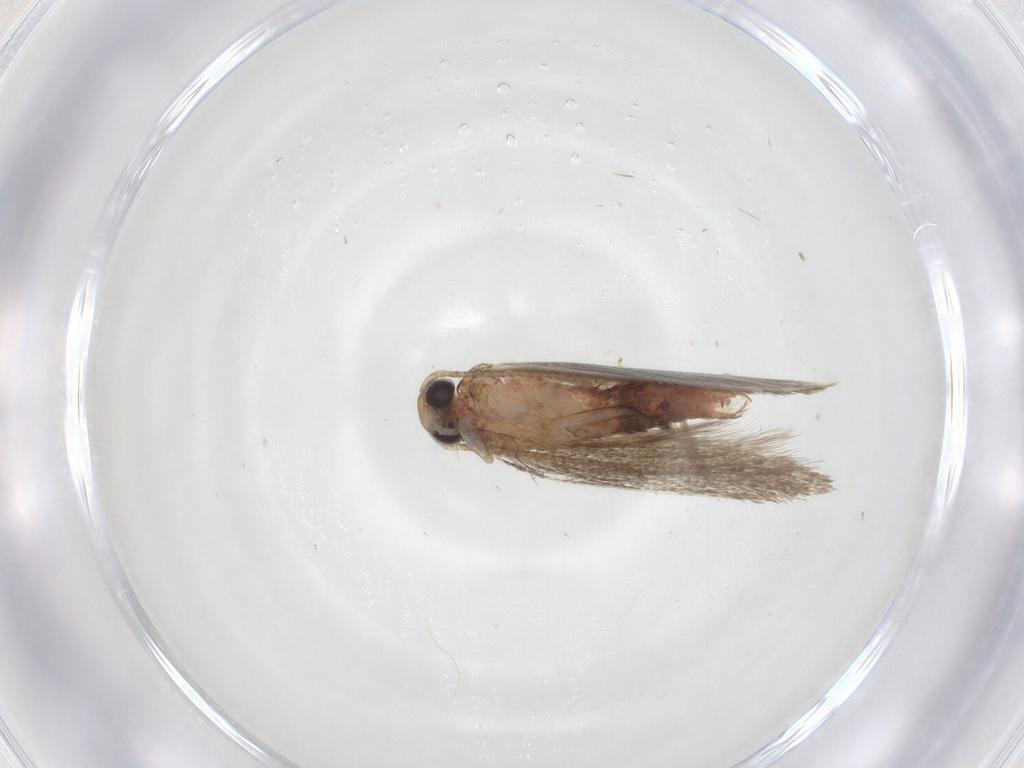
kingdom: Animalia
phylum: Arthropoda
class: Insecta
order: Lepidoptera
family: Gelechiidae
